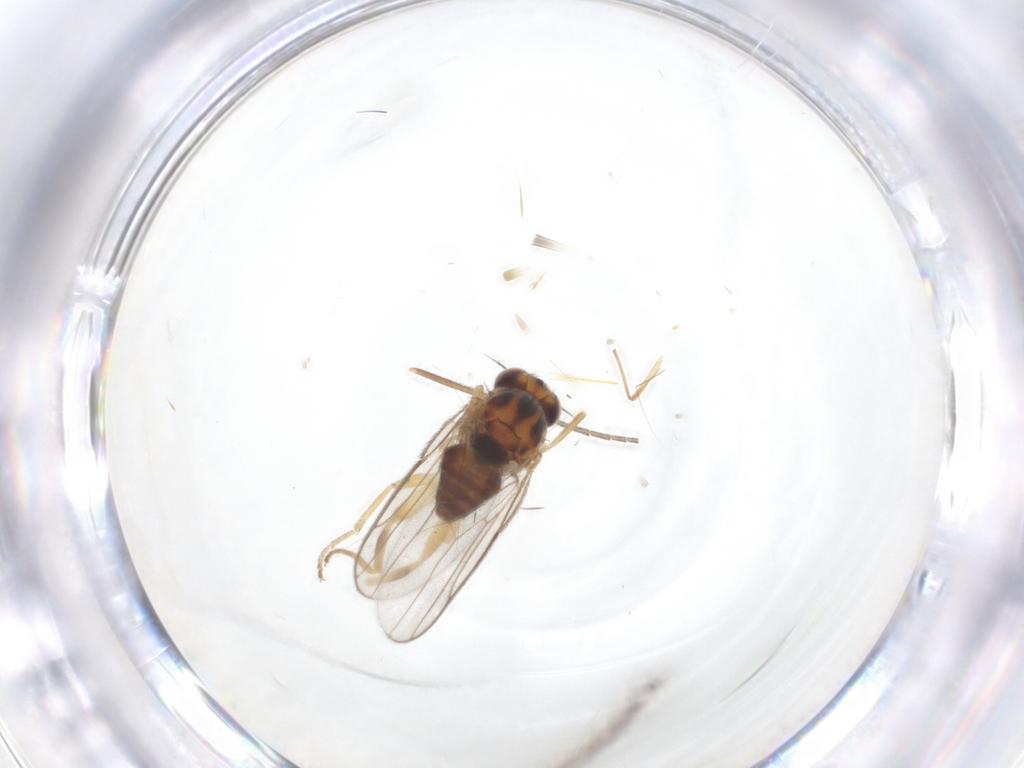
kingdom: Animalia
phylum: Arthropoda
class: Insecta
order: Diptera
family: Chloropidae
